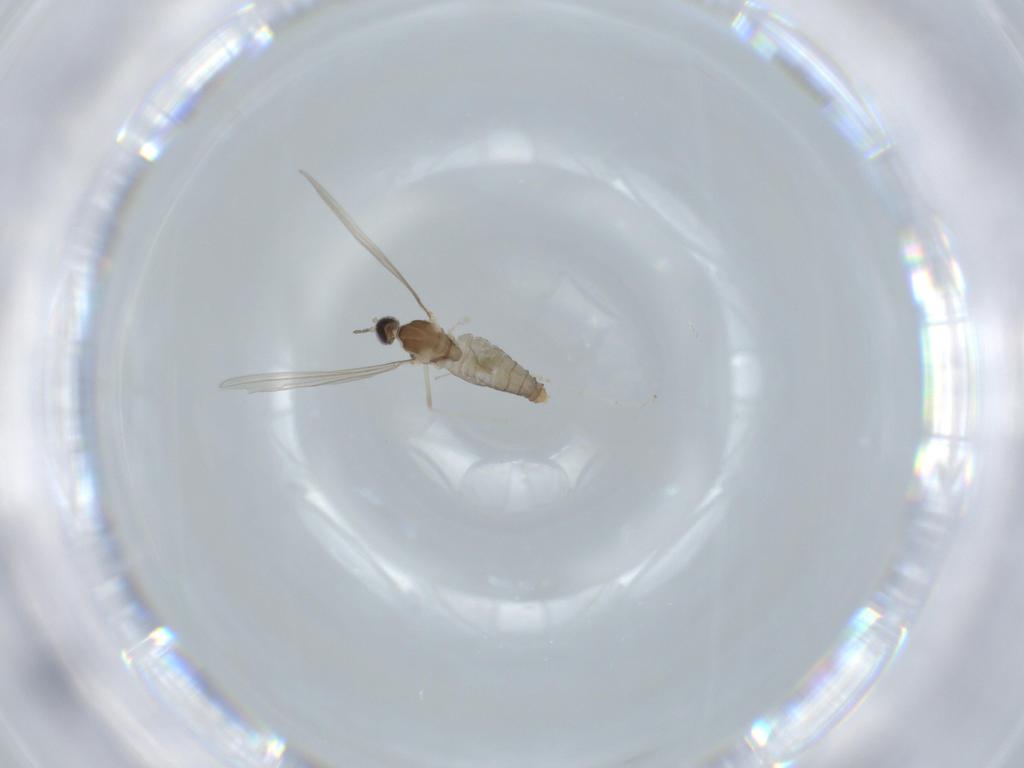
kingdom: Animalia
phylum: Arthropoda
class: Insecta
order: Diptera
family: Cecidomyiidae
